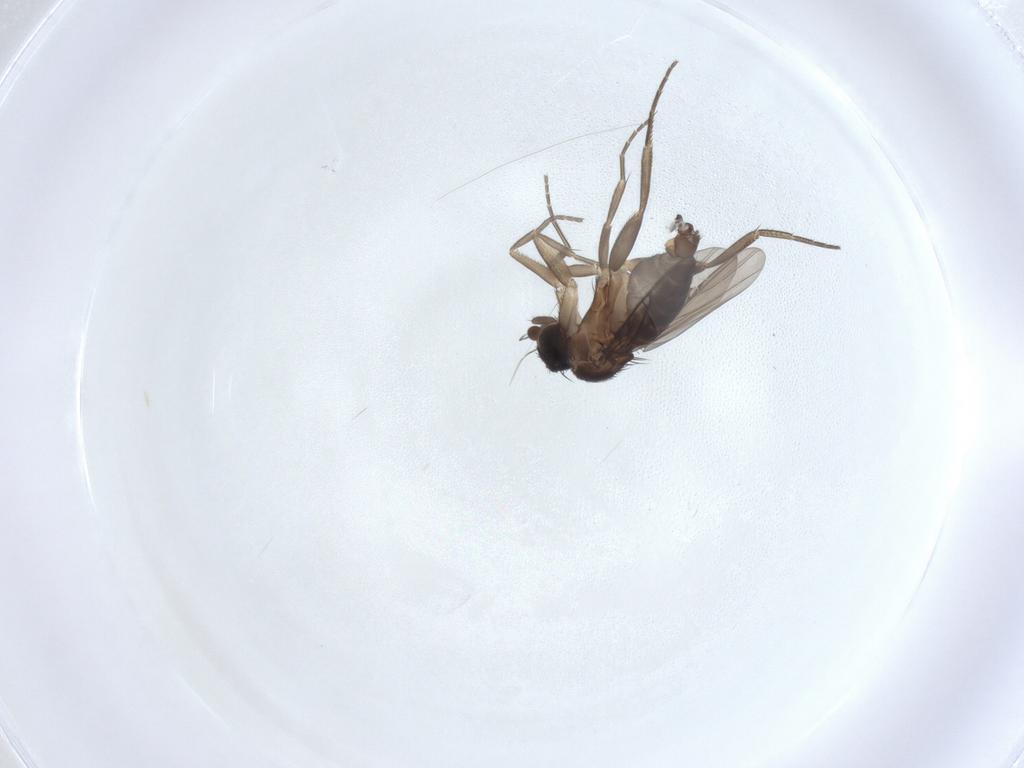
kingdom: Animalia
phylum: Arthropoda
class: Insecta
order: Diptera
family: Phoridae
